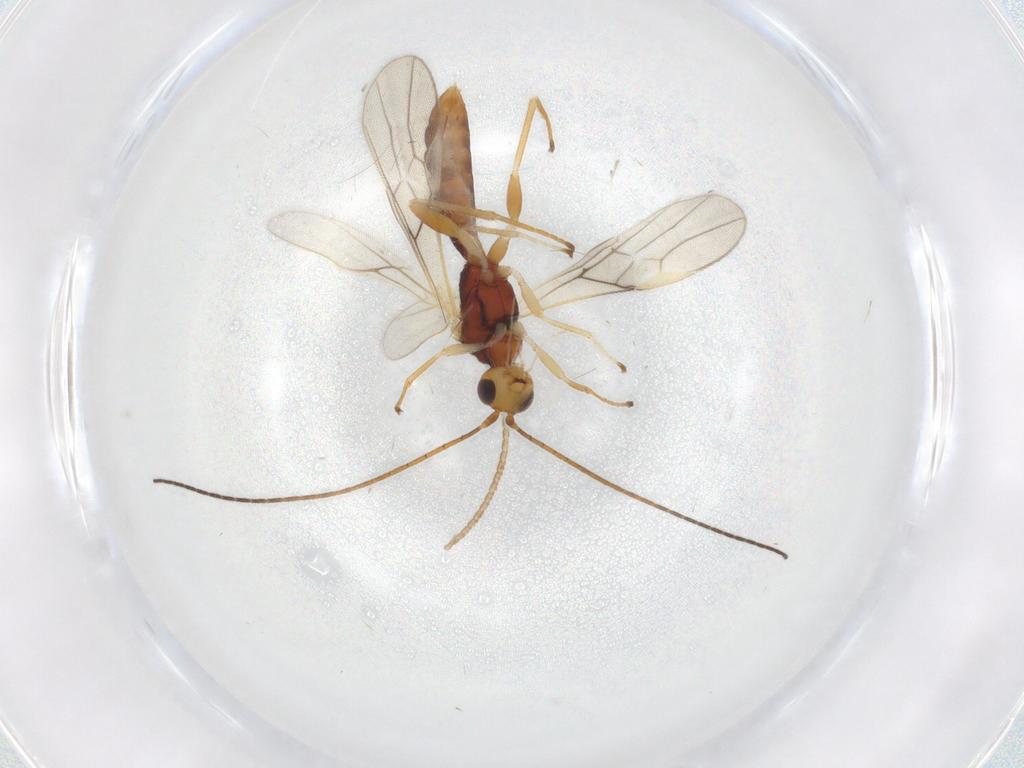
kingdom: Animalia
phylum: Arthropoda
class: Insecta
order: Hymenoptera
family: Braconidae
